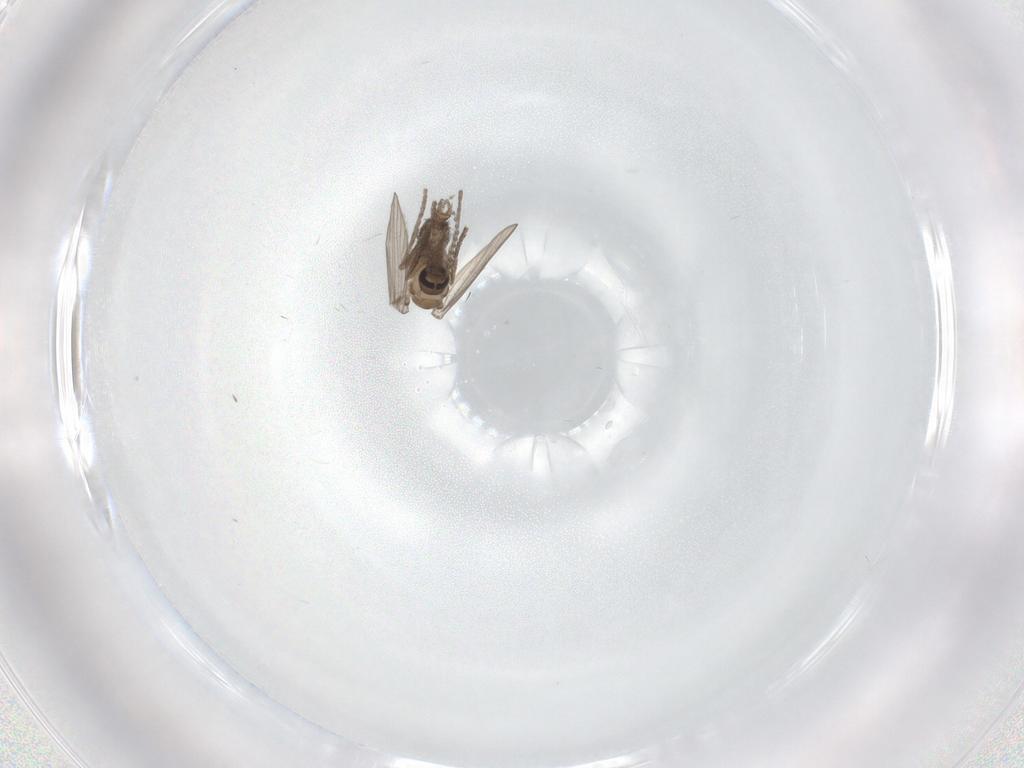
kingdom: Animalia
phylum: Arthropoda
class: Insecta
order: Diptera
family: Psychodidae
